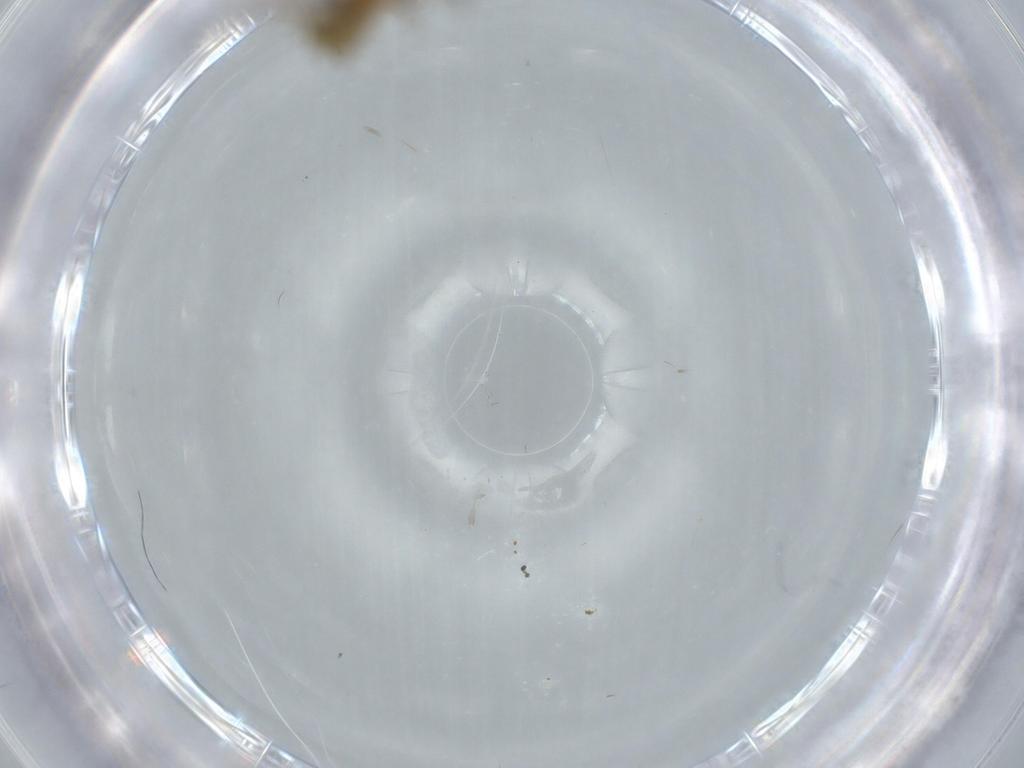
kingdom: Animalia
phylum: Arthropoda
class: Insecta
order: Diptera
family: Sciaridae
